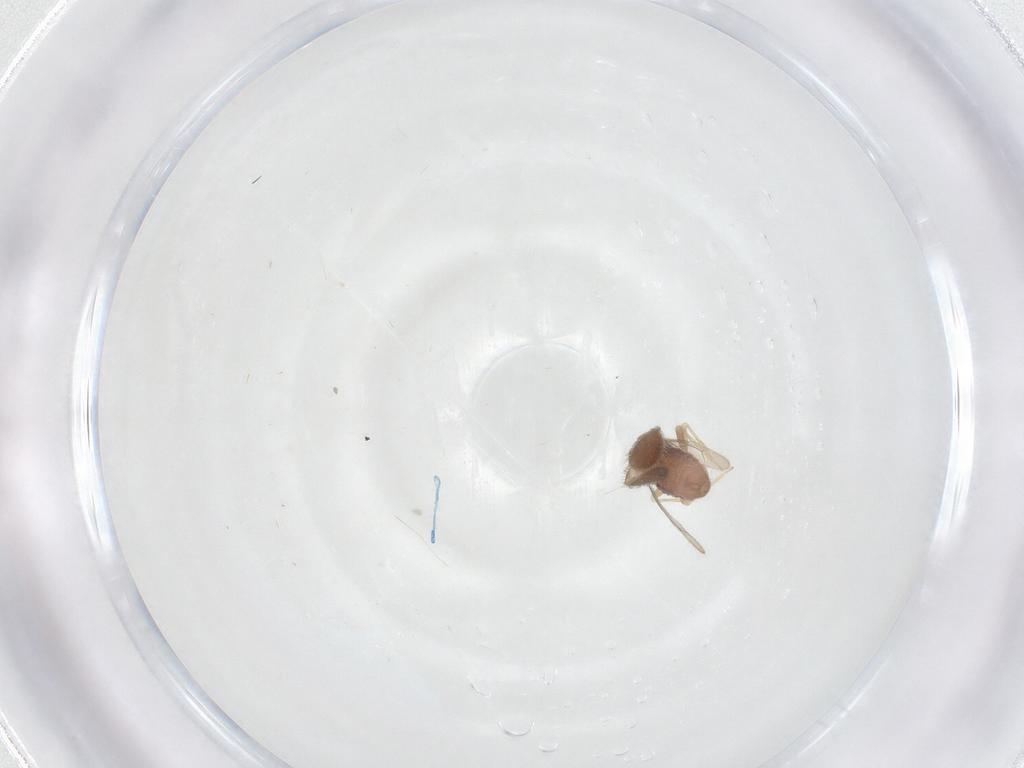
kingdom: Animalia
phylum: Arthropoda
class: Insecta
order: Psocodea
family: Archipsocidae
